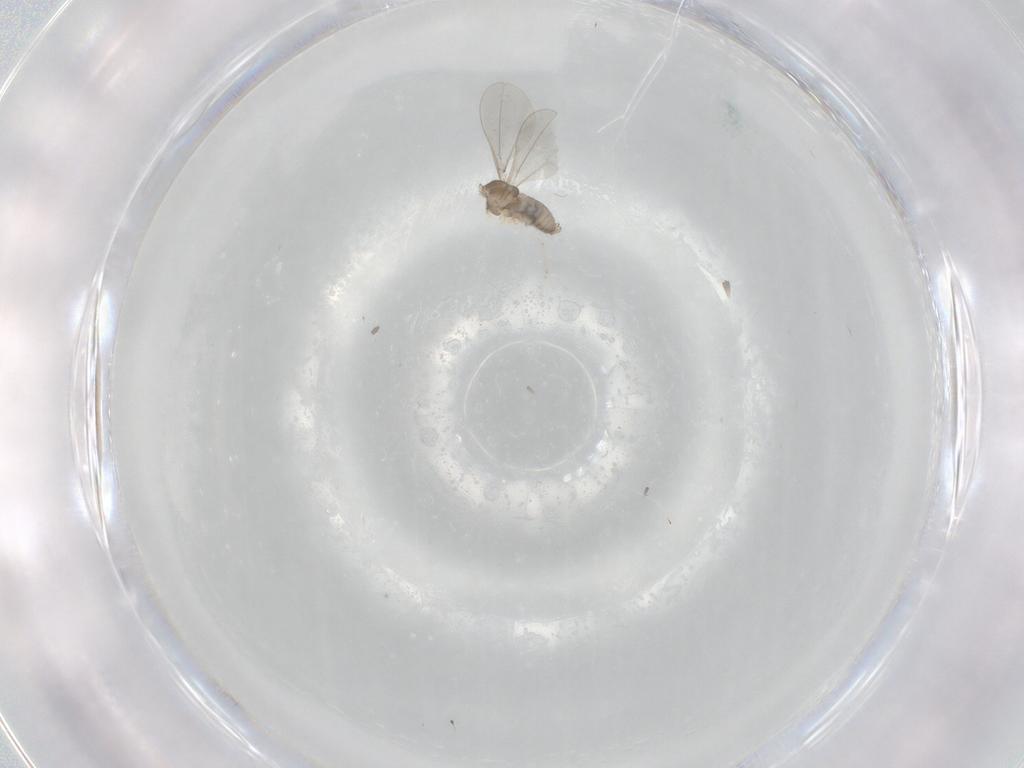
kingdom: Animalia
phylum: Arthropoda
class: Insecta
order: Diptera
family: Cecidomyiidae
